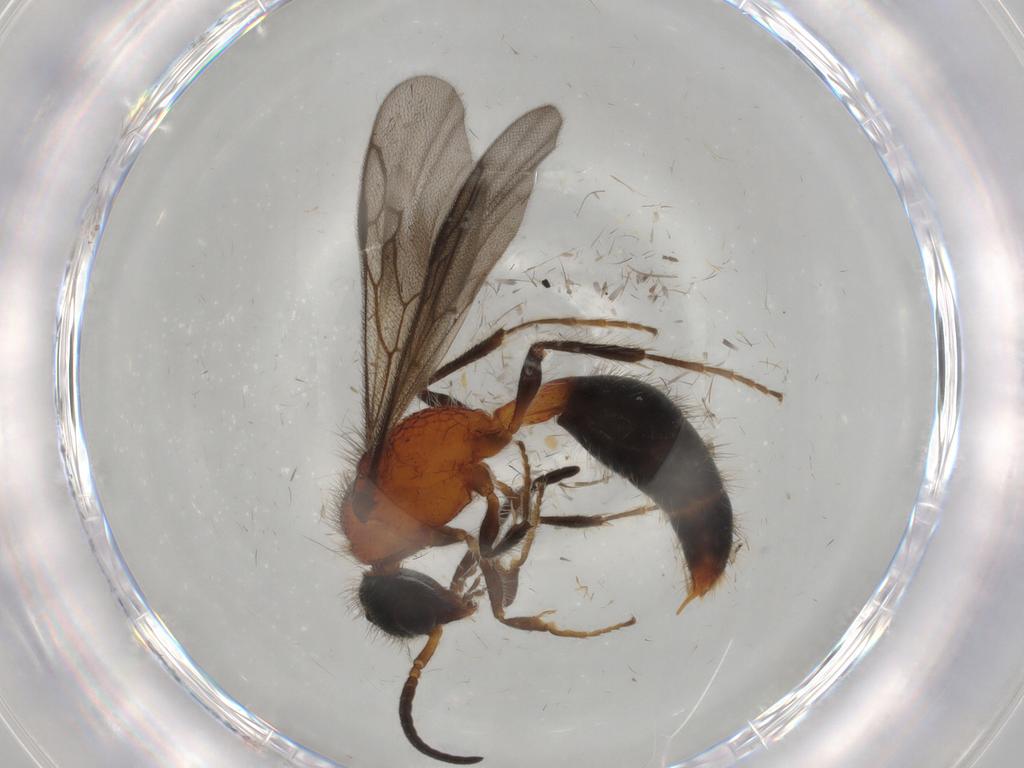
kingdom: Animalia
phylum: Arthropoda
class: Insecta
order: Hymenoptera
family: Mutillidae
